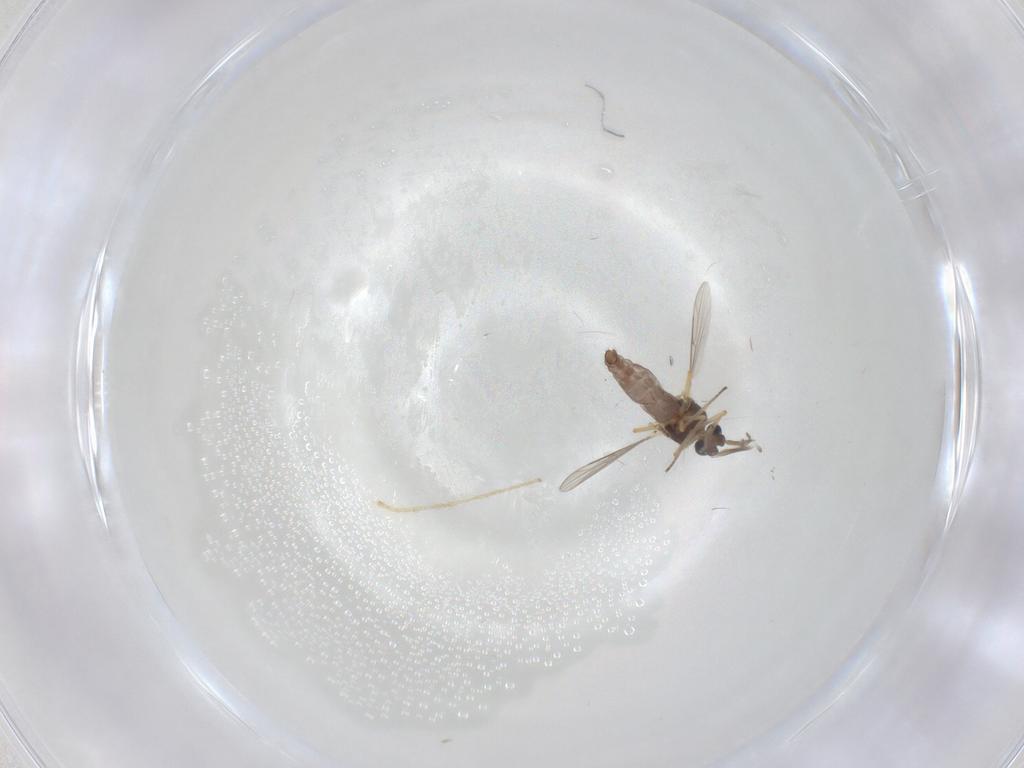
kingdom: Animalia
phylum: Arthropoda
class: Insecta
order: Diptera
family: Ceratopogonidae
